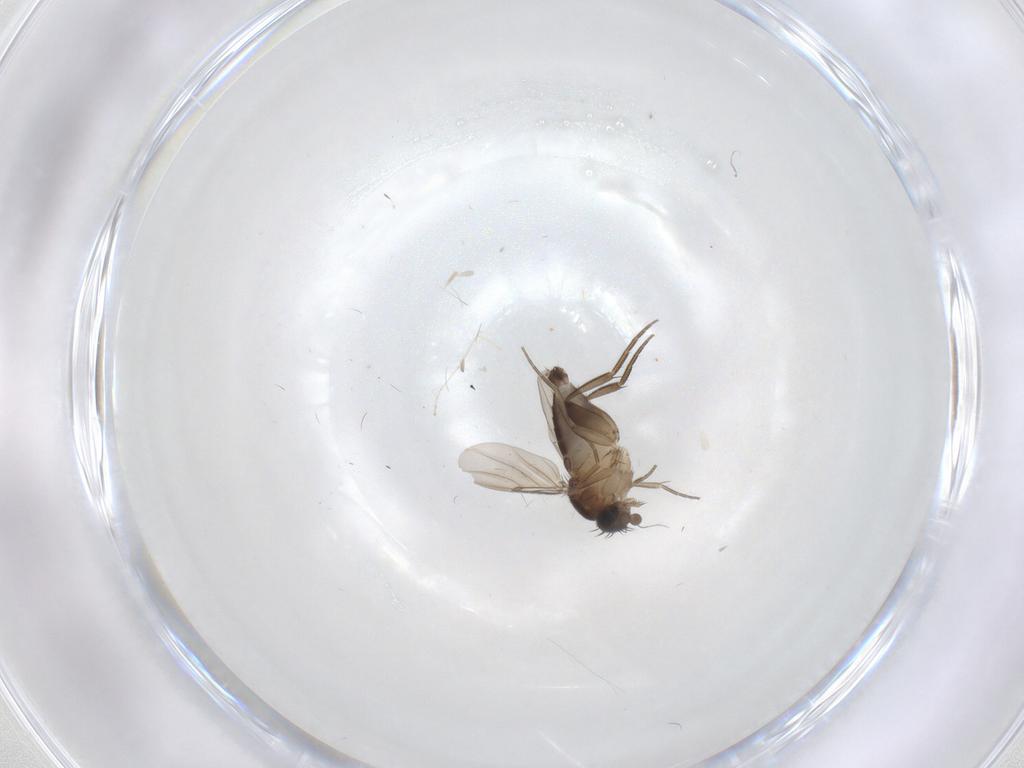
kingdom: Animalia
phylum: Arthropoda
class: Insecta
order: Diptera
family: Phoridae
